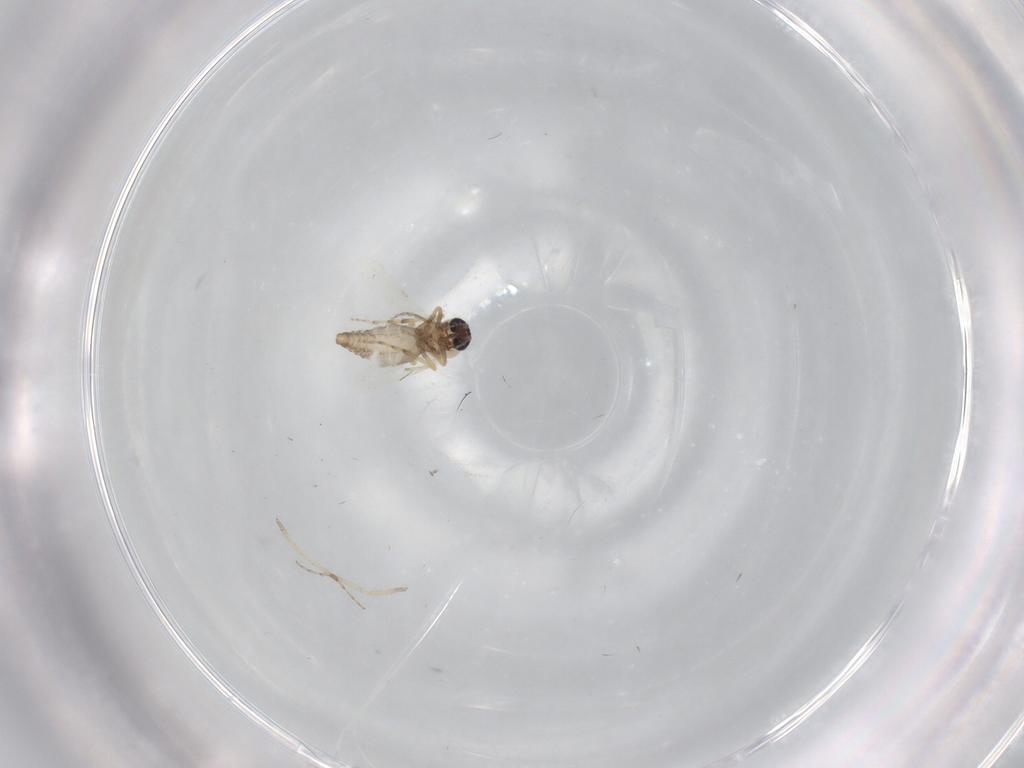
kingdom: Animalia
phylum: Arthropoda
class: Insecta
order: Diptera
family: Ceratopogonidae
